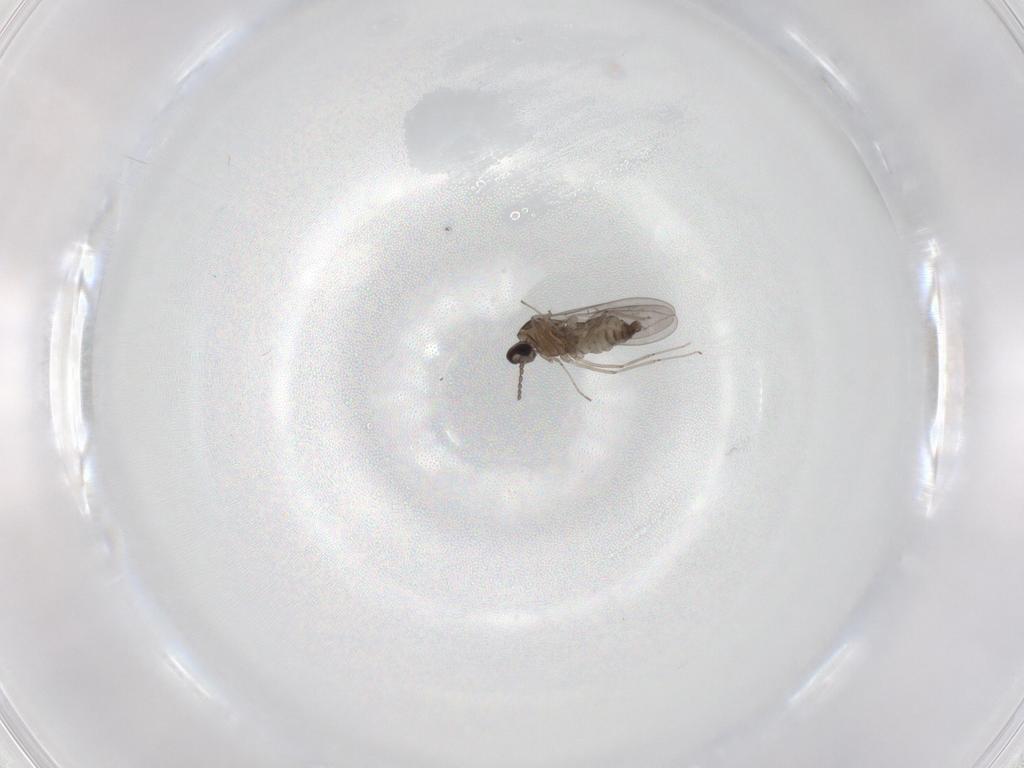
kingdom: Animalia
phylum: Arthropoda
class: Insecta
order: Diptera
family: Cecidomyiidae
